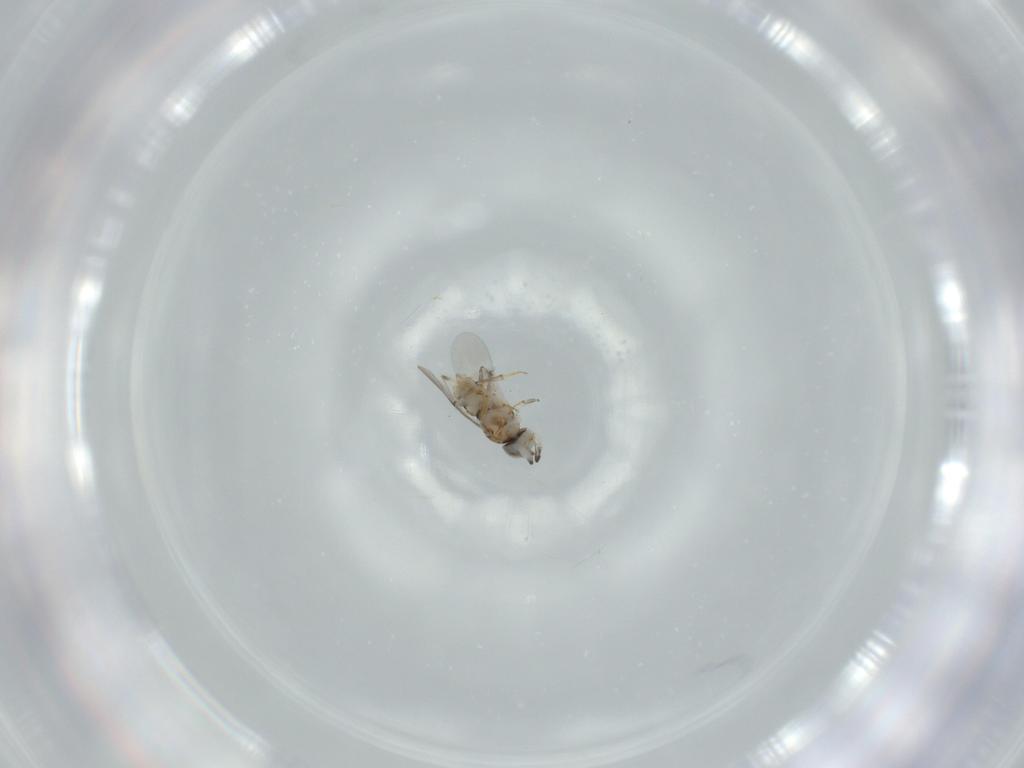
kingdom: Animalia
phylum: Arthropoda
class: Insecta
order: Hymenoptera
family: Encyrtidae
